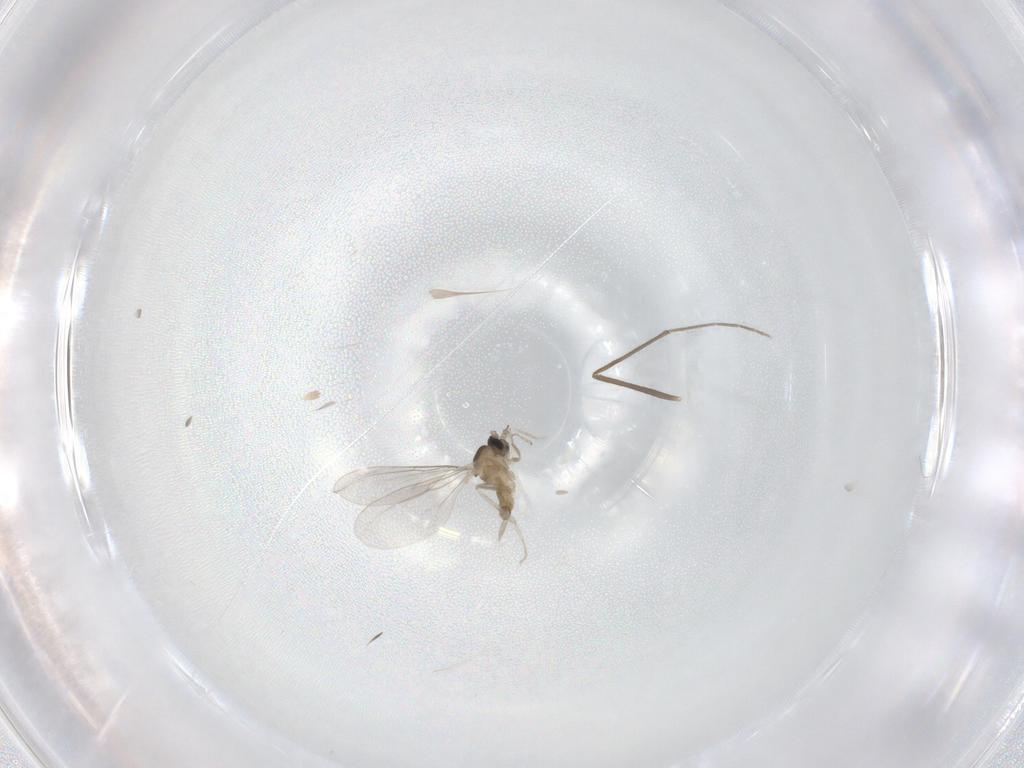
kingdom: Animalia
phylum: Arthropoda
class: Insecta
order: Diptera
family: Cecidomyiidae
